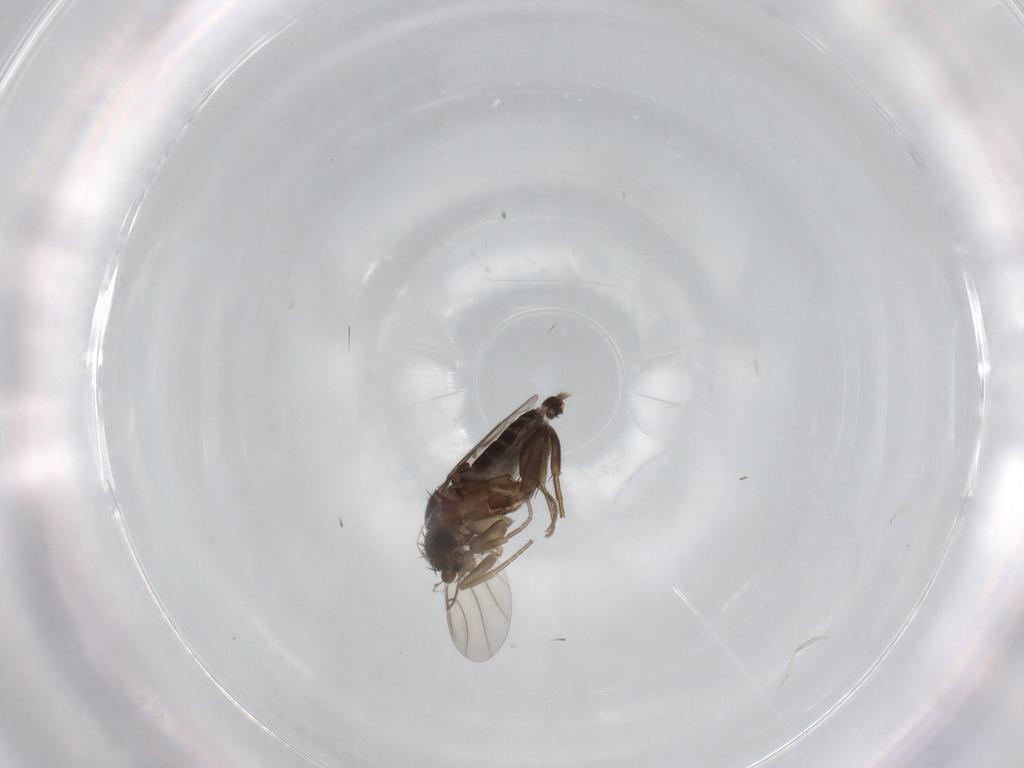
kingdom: Animalia
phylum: Arthropoda
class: Insecta
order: Diptera
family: Phoridae
